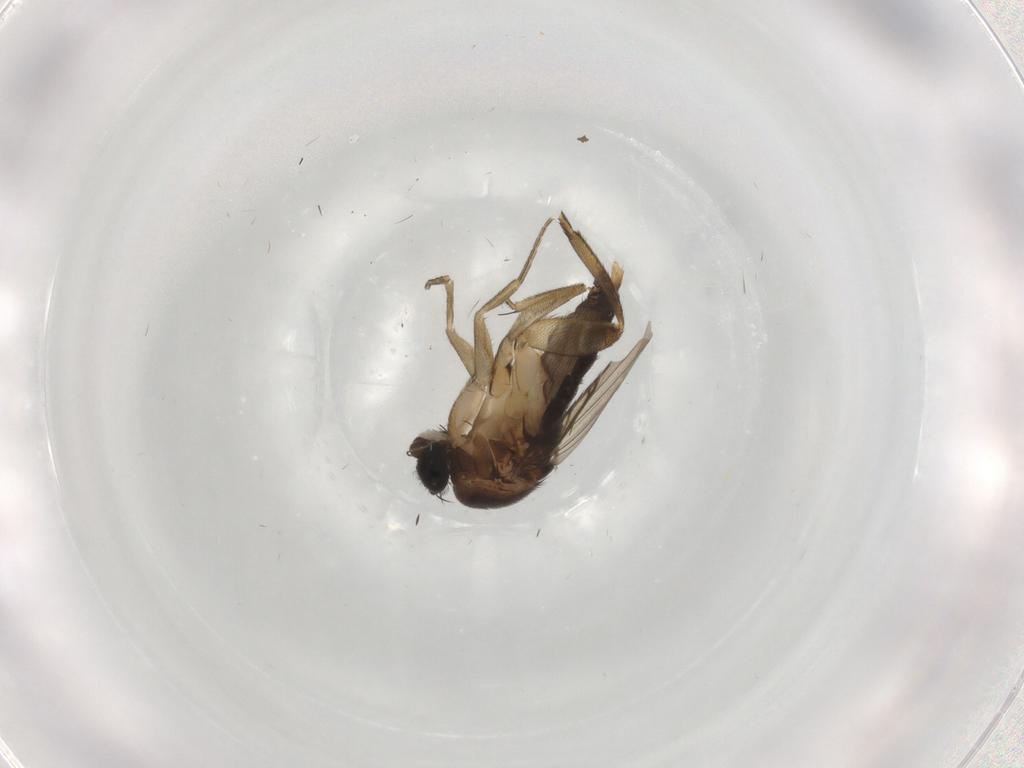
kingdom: Animalia
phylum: Arthropoda
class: Insecta
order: Diptera
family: Phoridae
